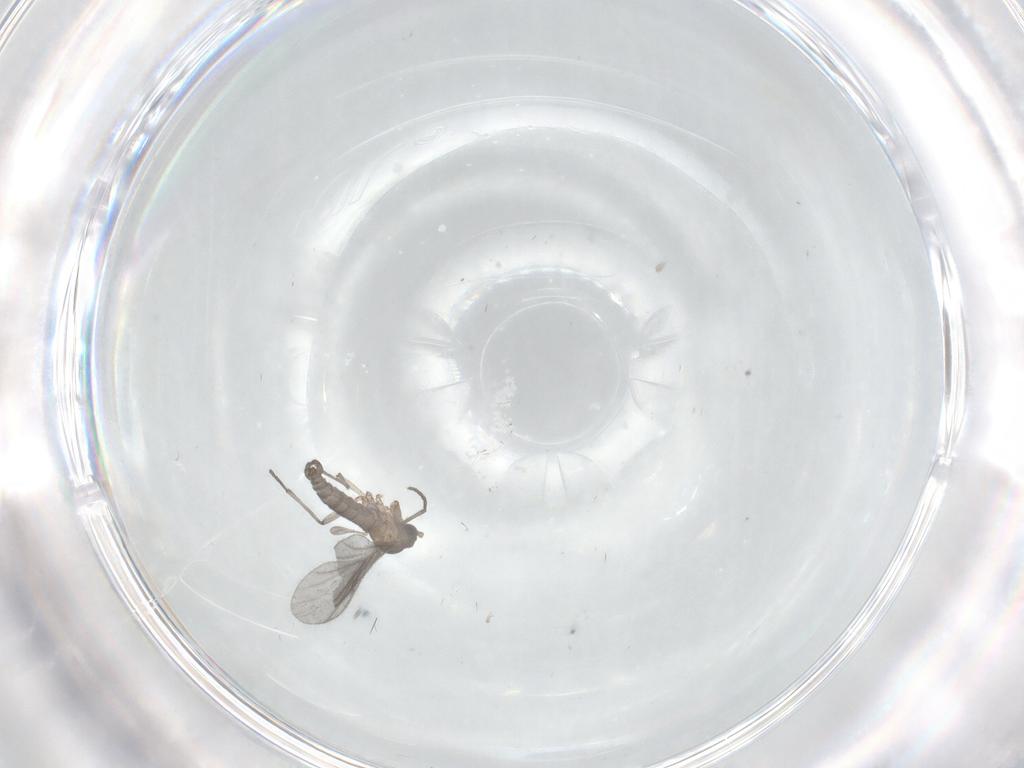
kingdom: Animalia
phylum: Arthropoda
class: Insecta
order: Diptera
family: Sciaridae
